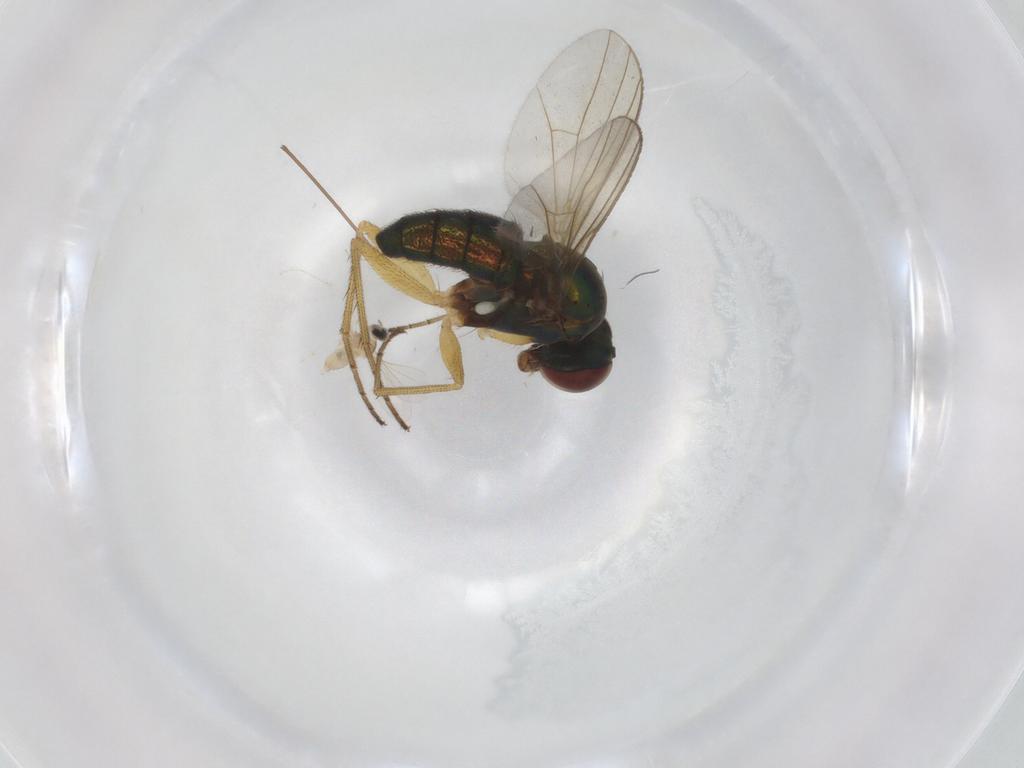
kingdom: Animalia
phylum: Arthropoda
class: Insecta
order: Diptera
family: Dolichopodidae
